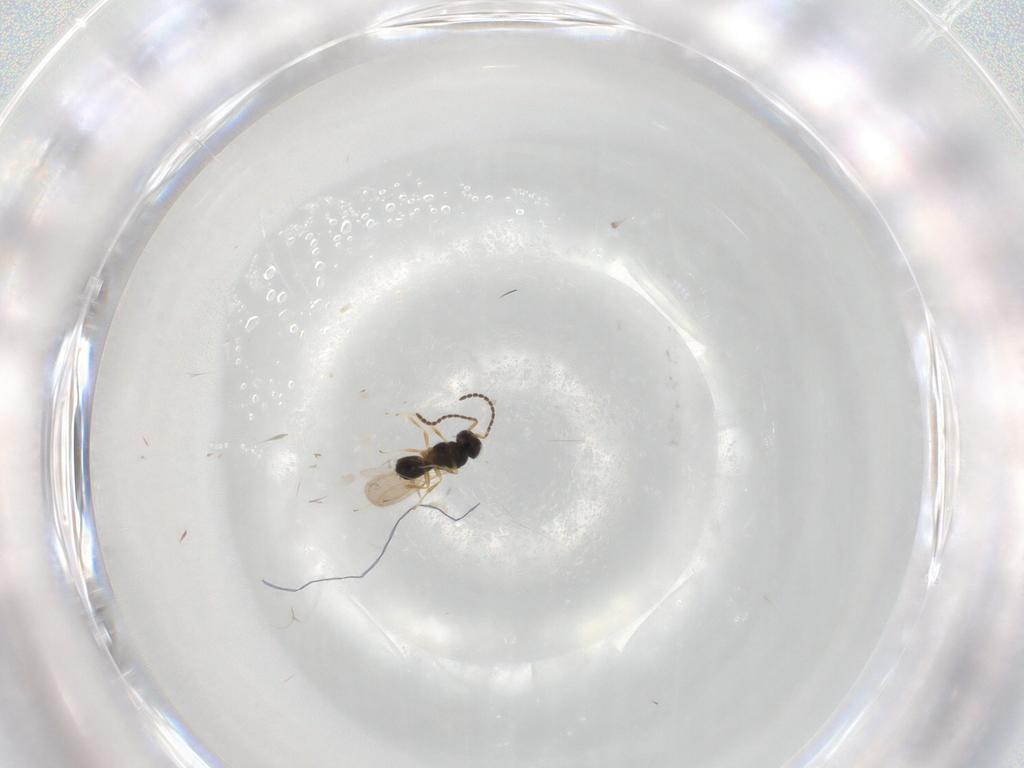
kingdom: Animalia
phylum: Arthropoda
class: Insecta
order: Hymenoptera
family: Scelionidae
